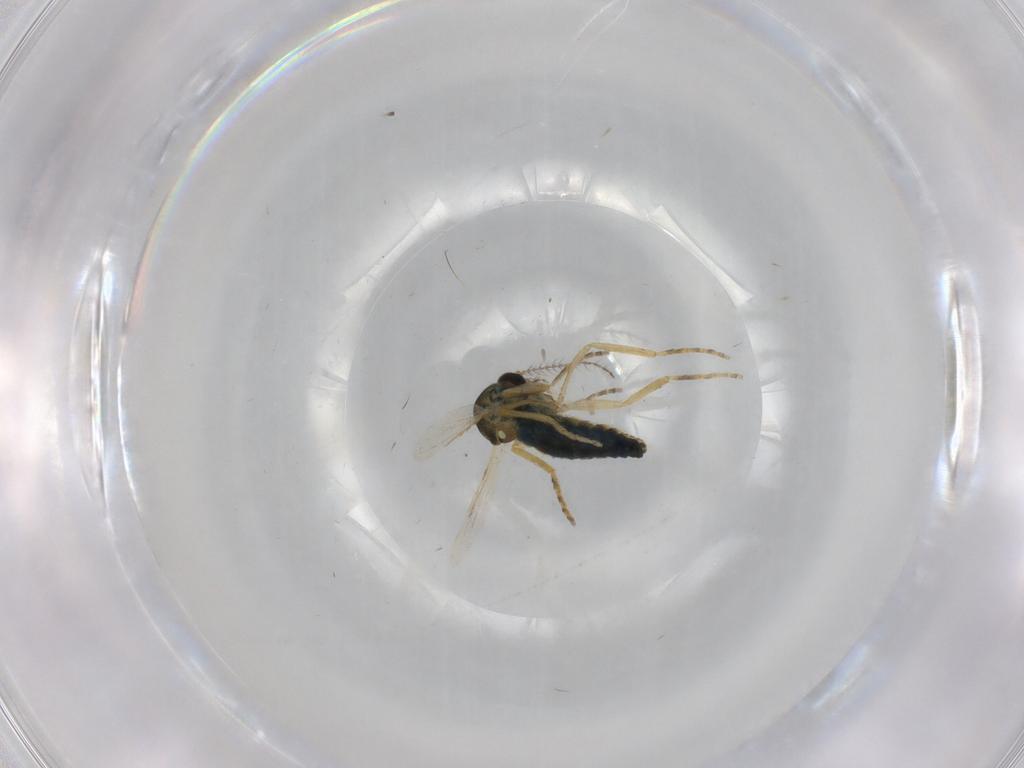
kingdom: Animalia
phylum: Arthropoda
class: Insecta
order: Diptera
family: Ceratopogonidae
